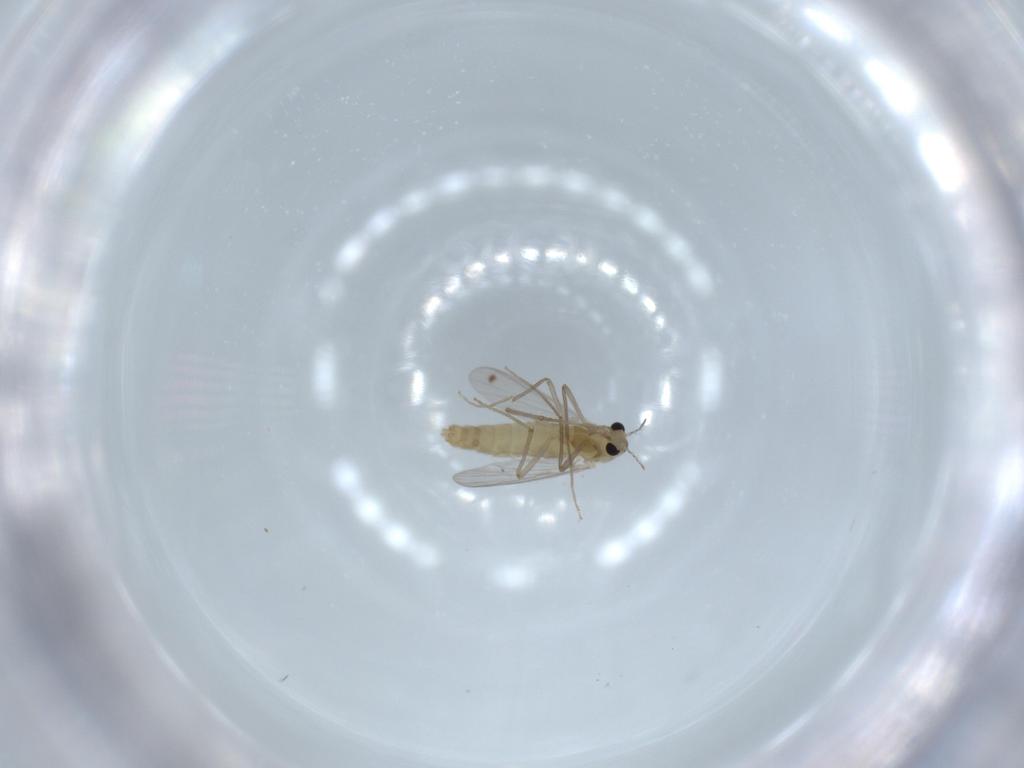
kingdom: Animalia
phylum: Arthropoda
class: Insecta
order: Diptera
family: Chironomidae
